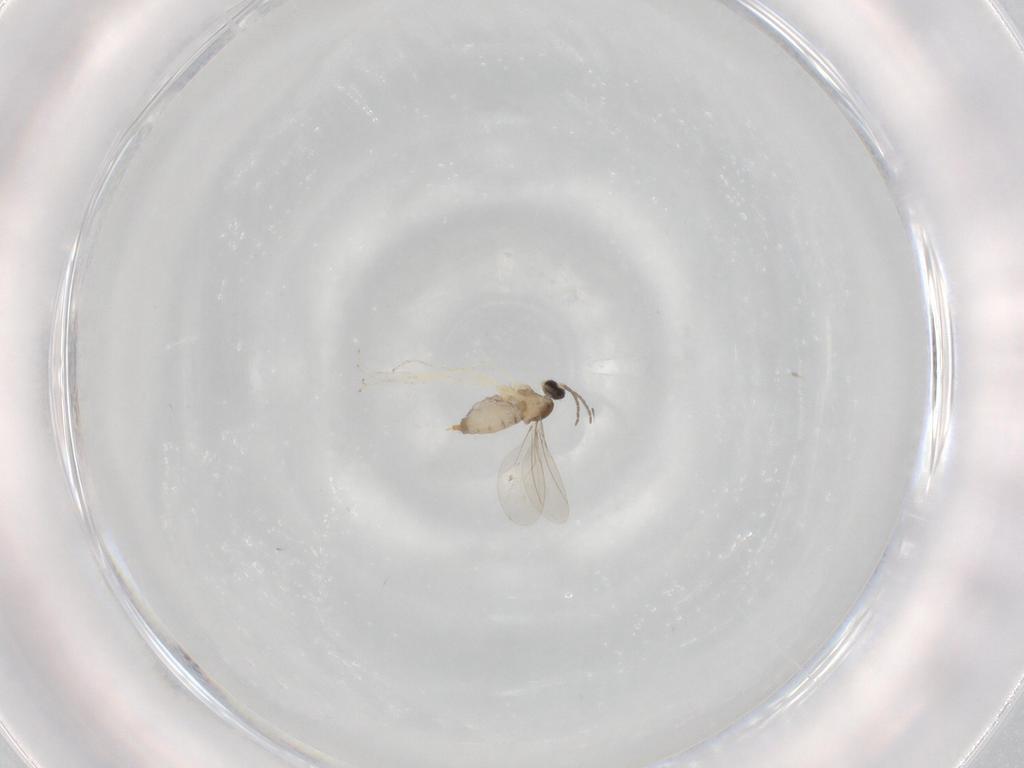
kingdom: Animalia
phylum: Arthropoda
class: Insecta
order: Diptera
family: Cecidomyiidae
